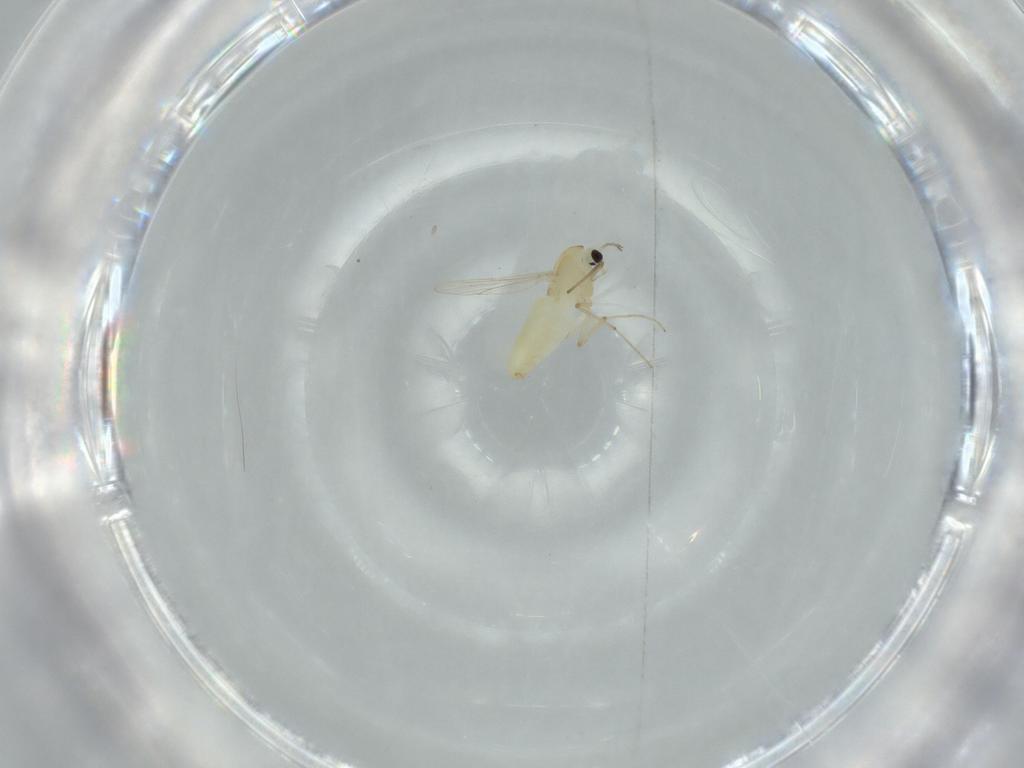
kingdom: Animalia
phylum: Arthropoda
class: Insecta
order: Diptera
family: Chironomidae
